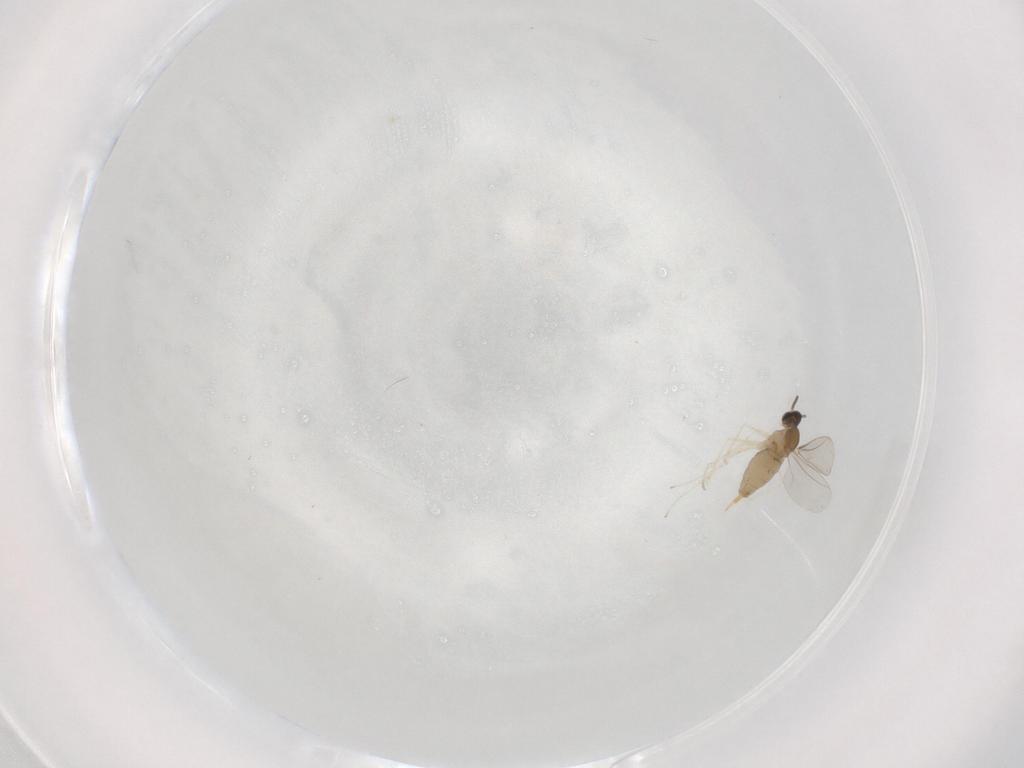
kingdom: Animalia
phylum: Arthropoda
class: Insecta
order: Diptera
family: Cecidomyiidae
